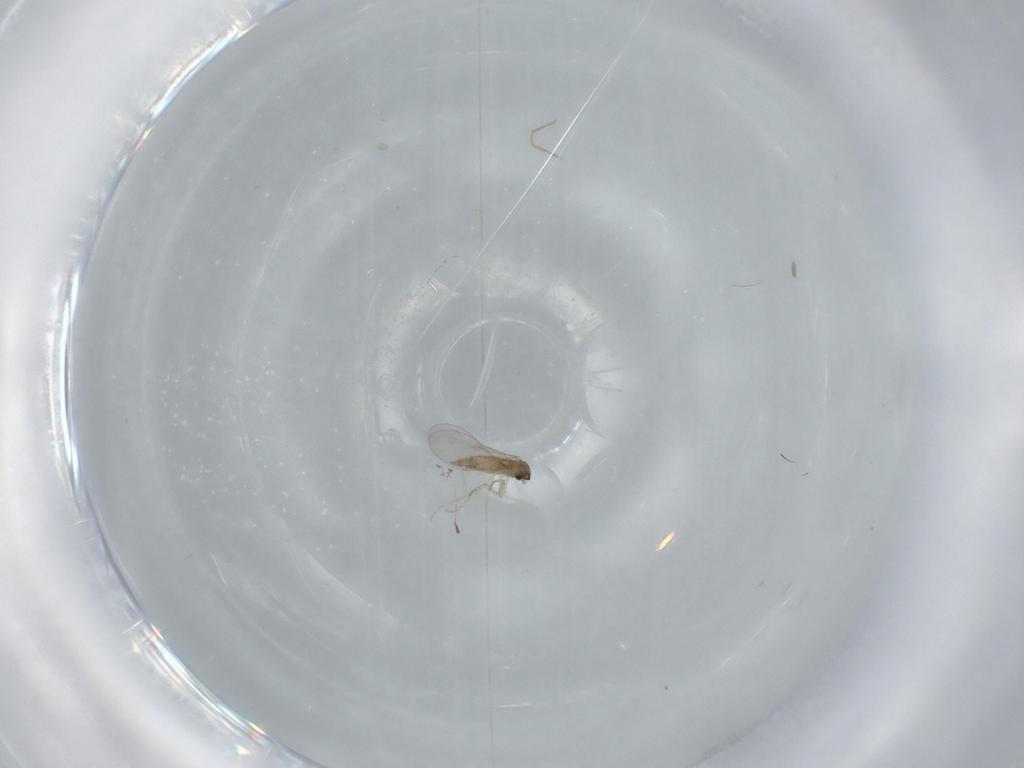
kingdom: Animalia
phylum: Arthropoda
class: Insecta
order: Diptera
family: Cecidomyiidae
